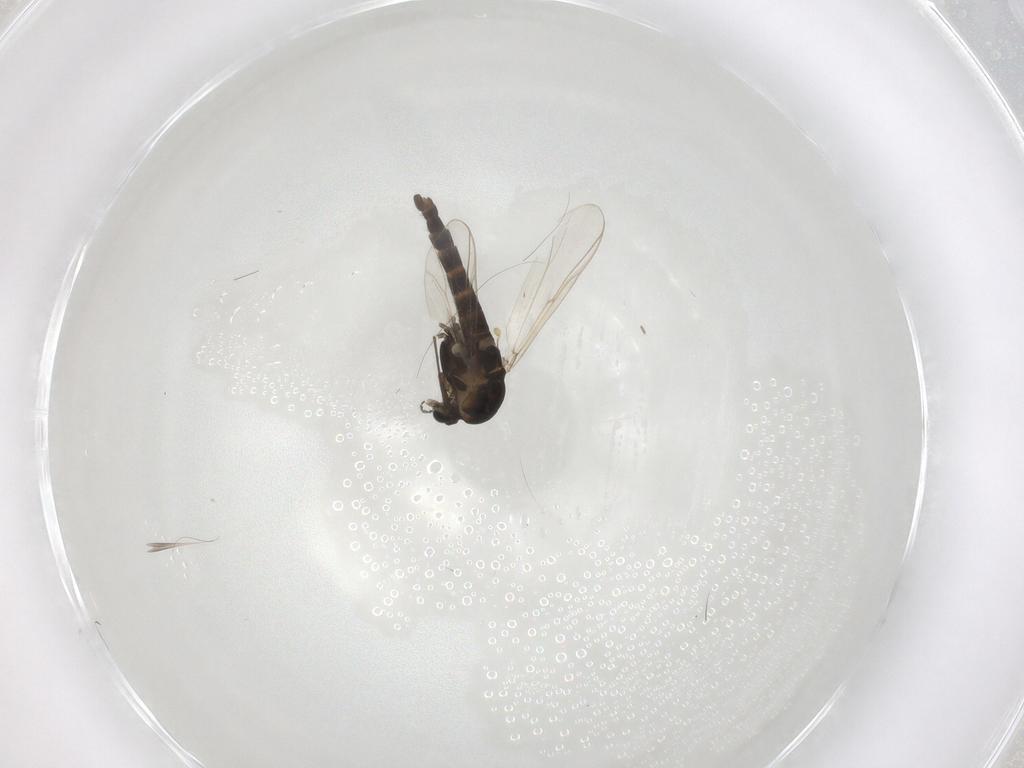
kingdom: Animalia
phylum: Arthropoda
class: Insecta
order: Diptera
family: Chironomidae
